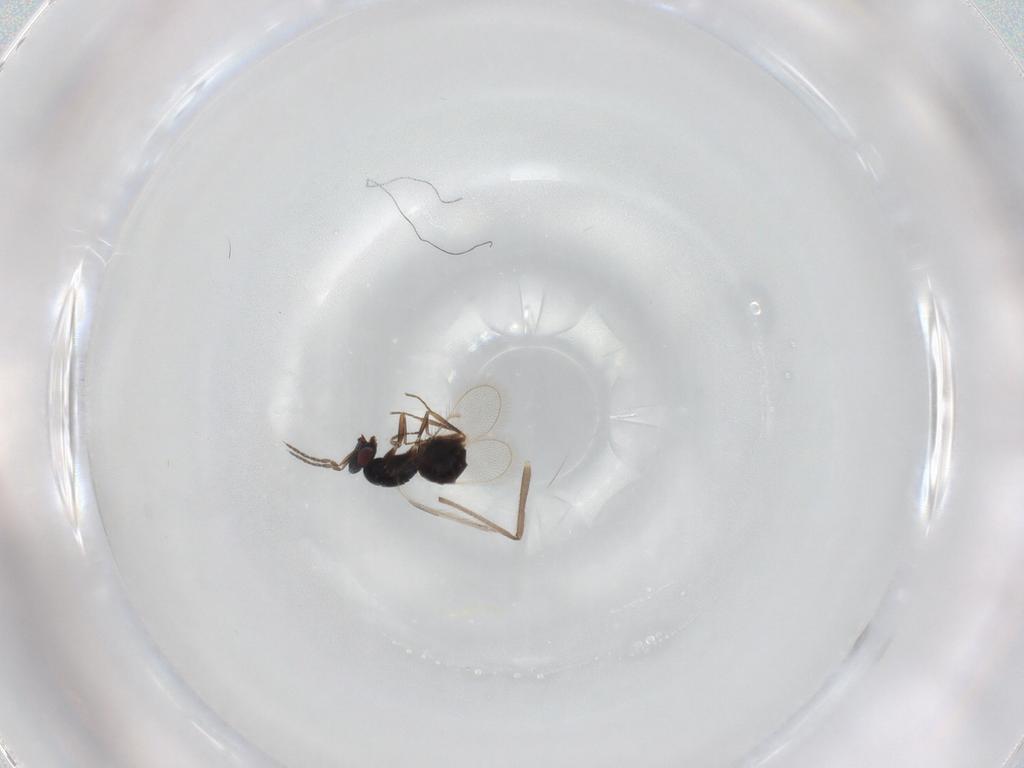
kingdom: Animalia
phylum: Arthropoda
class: Insecta
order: Hymenoptera
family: Eulophidae
